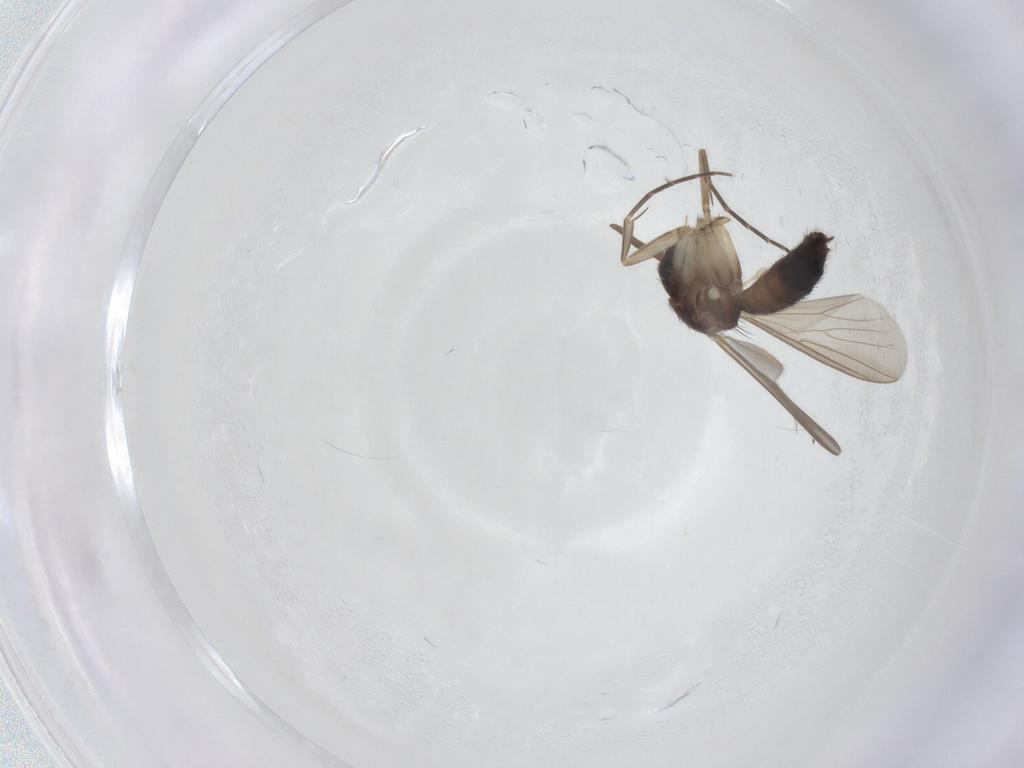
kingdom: Animalia
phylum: Arthropoda
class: Insecta
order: Diptera
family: Mycetophilidae
